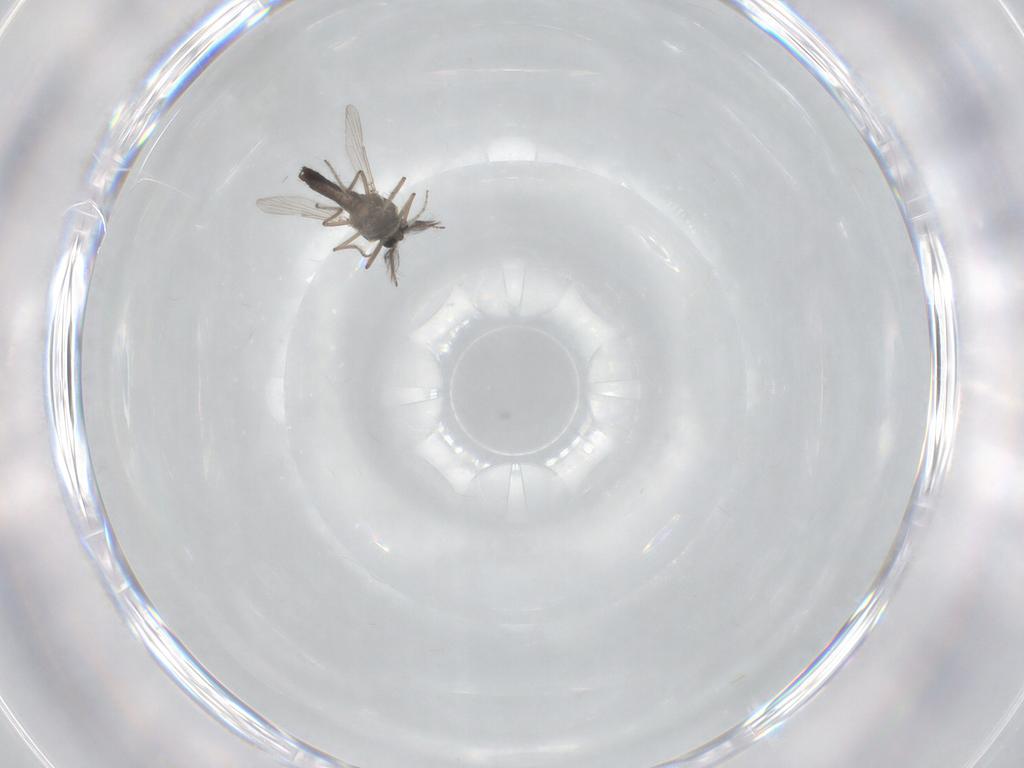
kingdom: Animalia
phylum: Arthropoda
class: Insecta
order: Diptera
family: Ceratopogonidae
